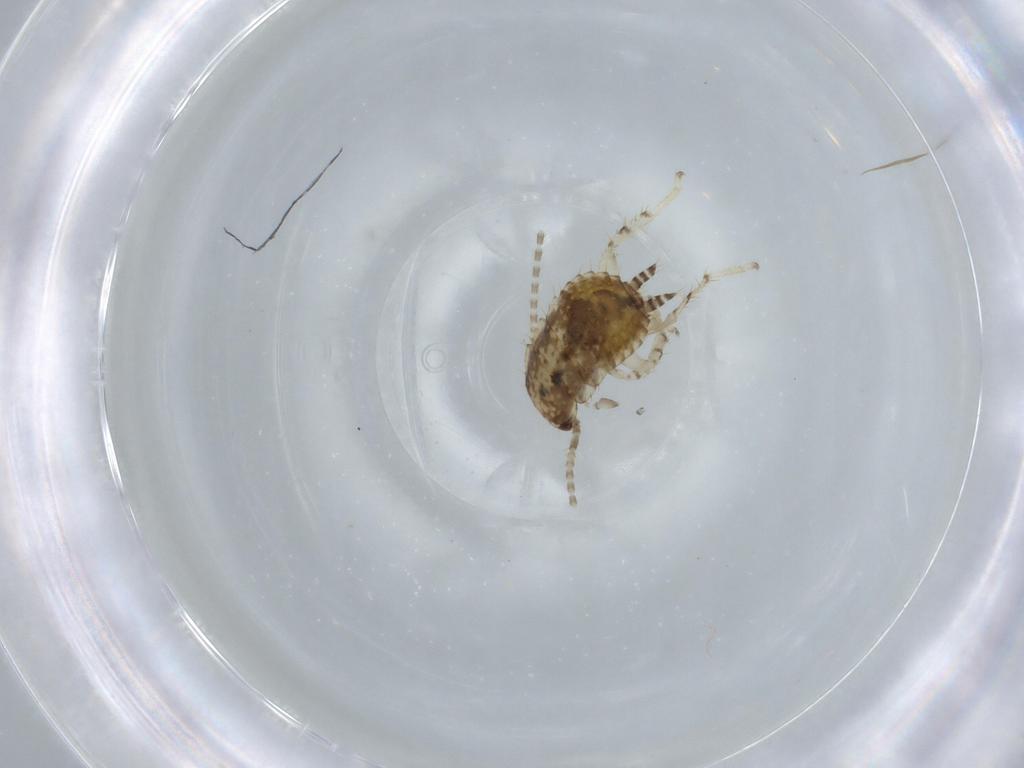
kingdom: Animalia
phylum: Arthropoda
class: Insecta
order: Blattodea
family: Ectobiidae
